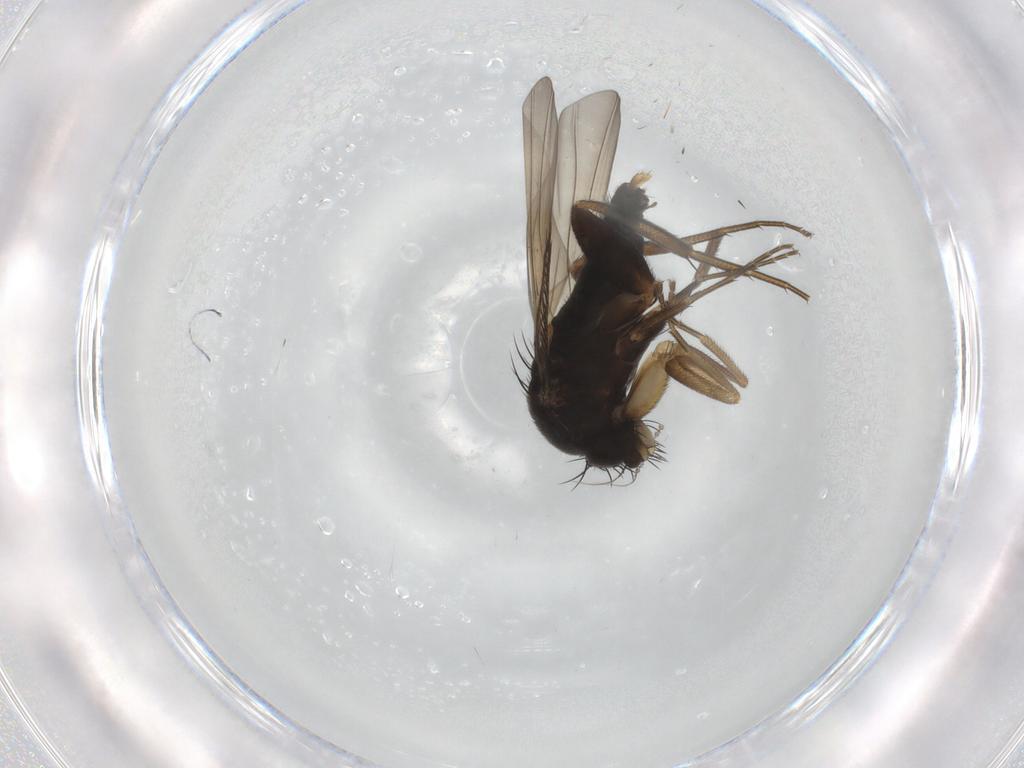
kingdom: Animalia
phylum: Arthropoda
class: Insecta
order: Diptera
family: Phoridae
